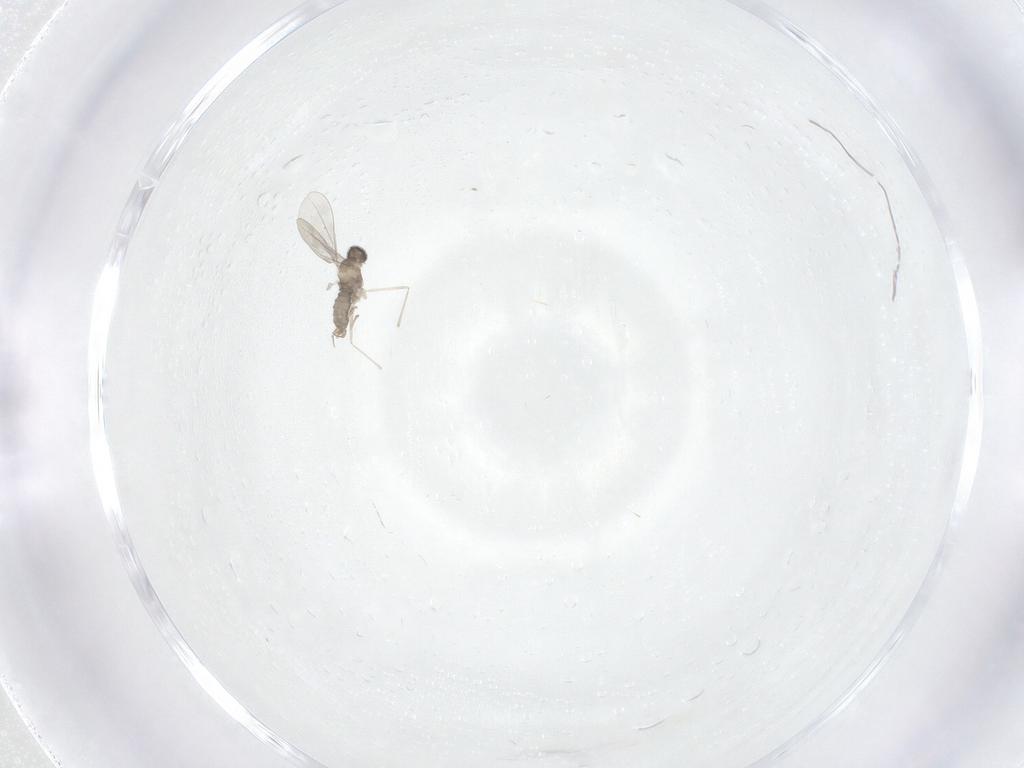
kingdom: Animalia
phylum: Arthropoda
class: Insecta
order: Diptera
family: Cecidomyiidae
